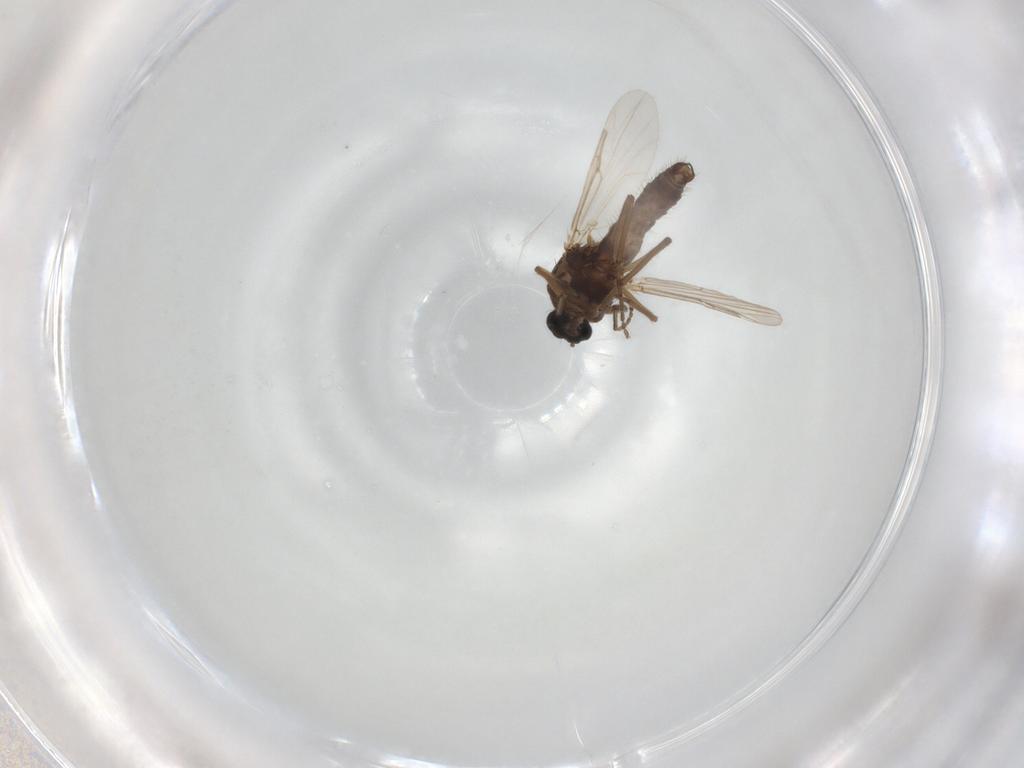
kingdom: Animalia
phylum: Arthropoda
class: Insecta
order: Diptera
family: Ceratopogonidae
